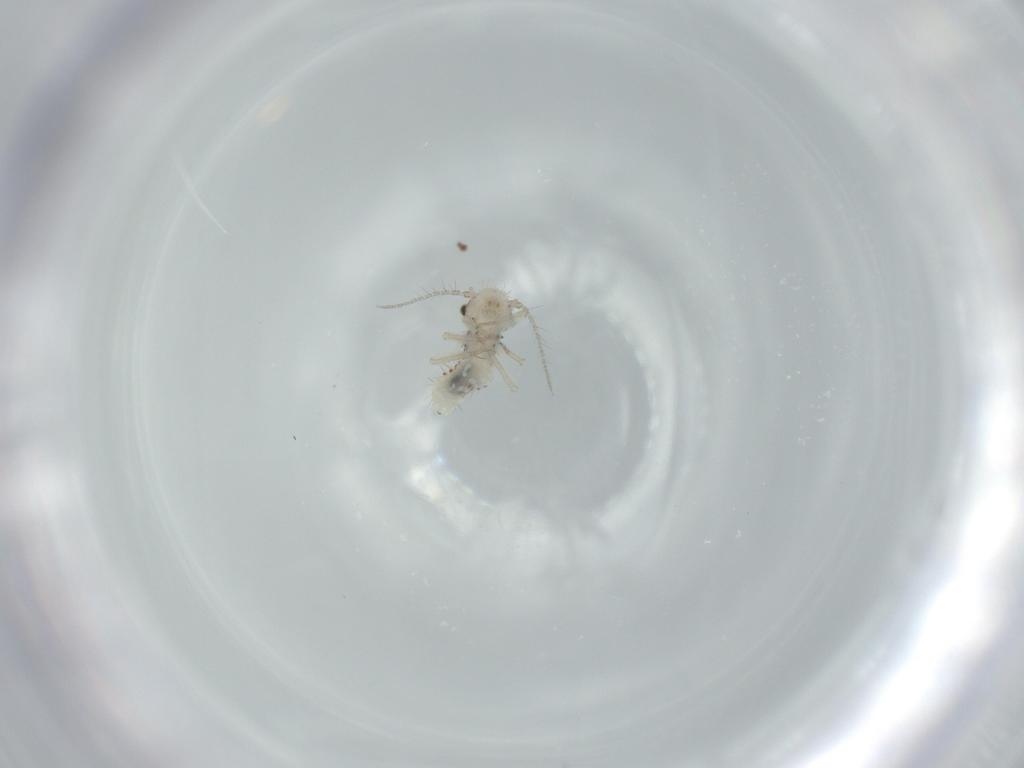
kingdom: Animalia
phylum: Arthropoda
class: Insecta
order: Psocodea
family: Pseudocaeciliidae
